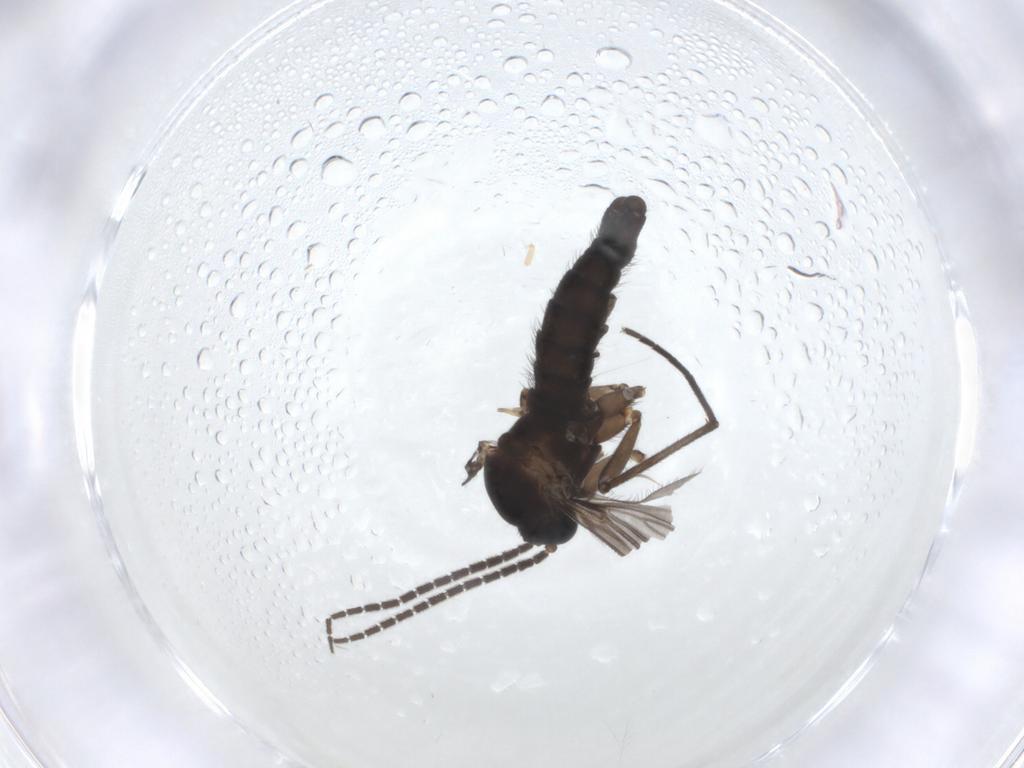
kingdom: Animalia
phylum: Arthropoda
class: Insecta
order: Diptera
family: Sciaridae
